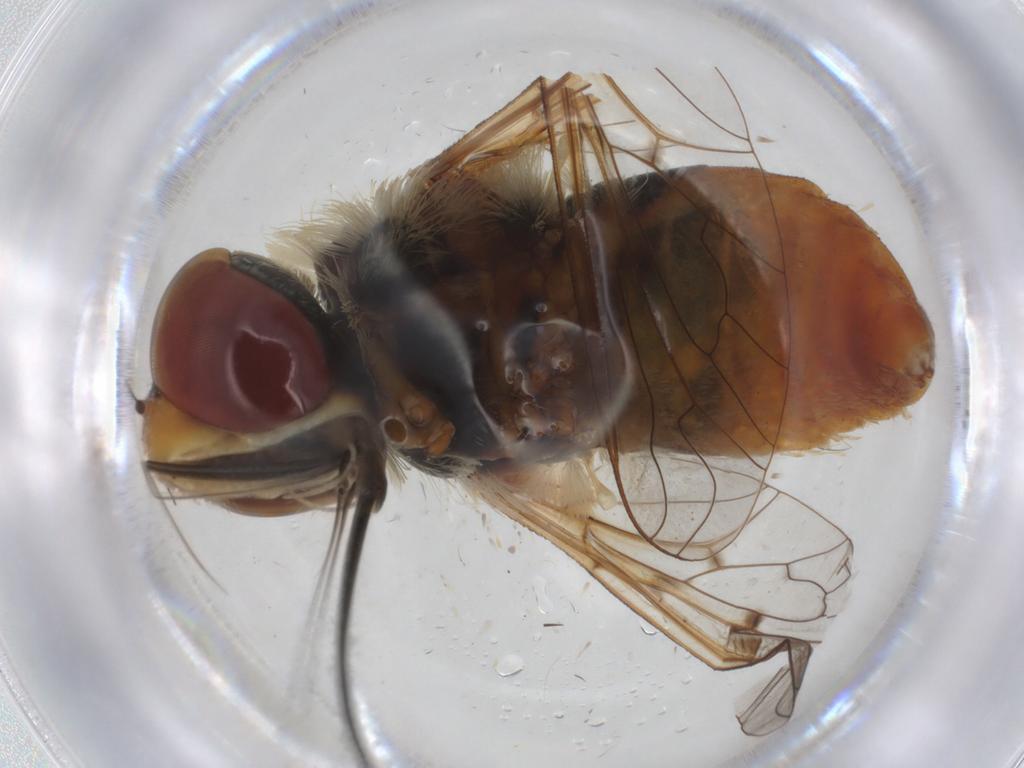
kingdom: Animalia
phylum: Arthropoda
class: Insecta
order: Diptera
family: Bombyliidae
